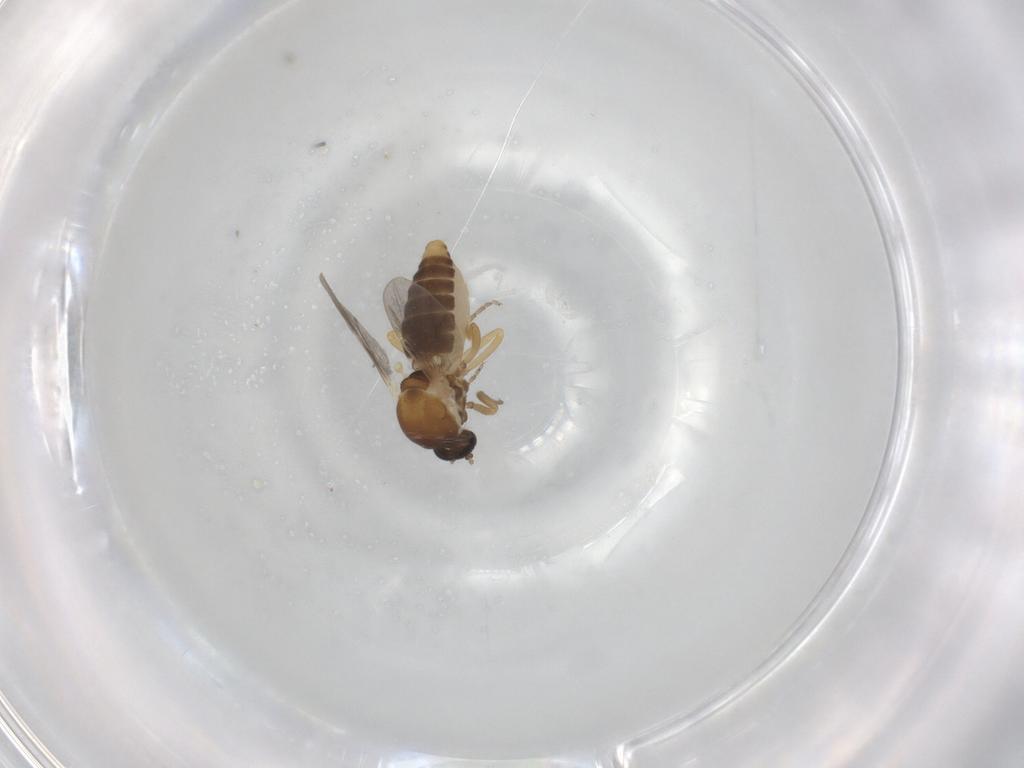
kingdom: Animalia
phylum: Arthropoda
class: Insecta
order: Diptera
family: Ceratopogonidae
